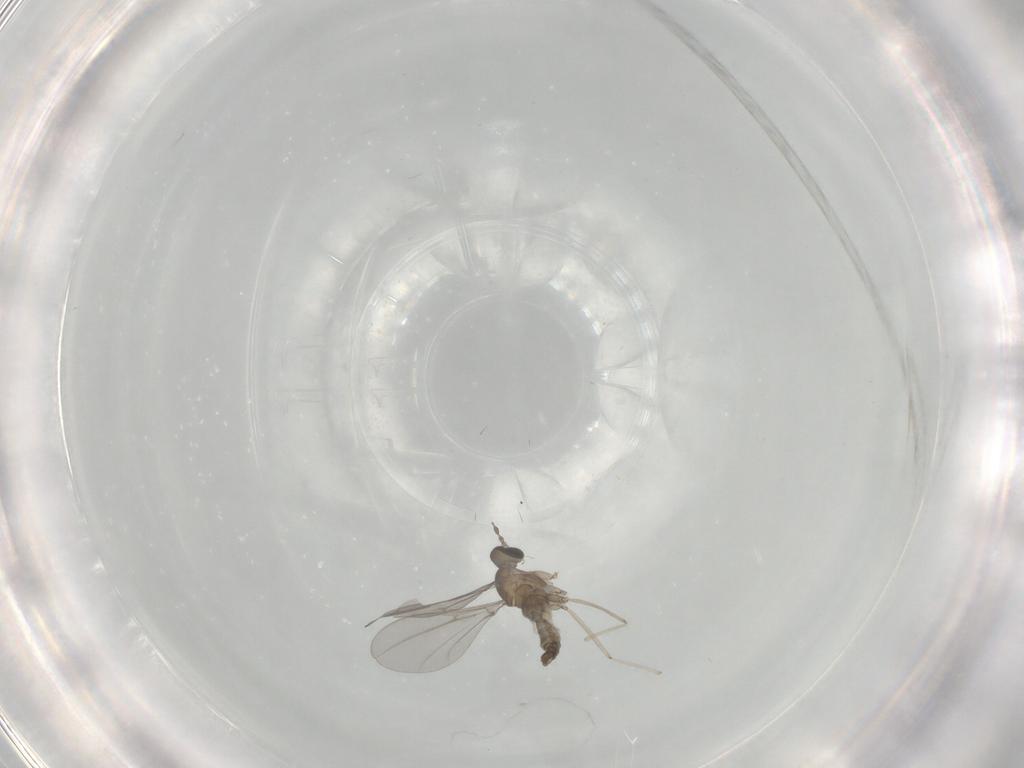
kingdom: Animalia
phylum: Arthropoda
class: Insecta
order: Diptera
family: Cecidomyiidae
